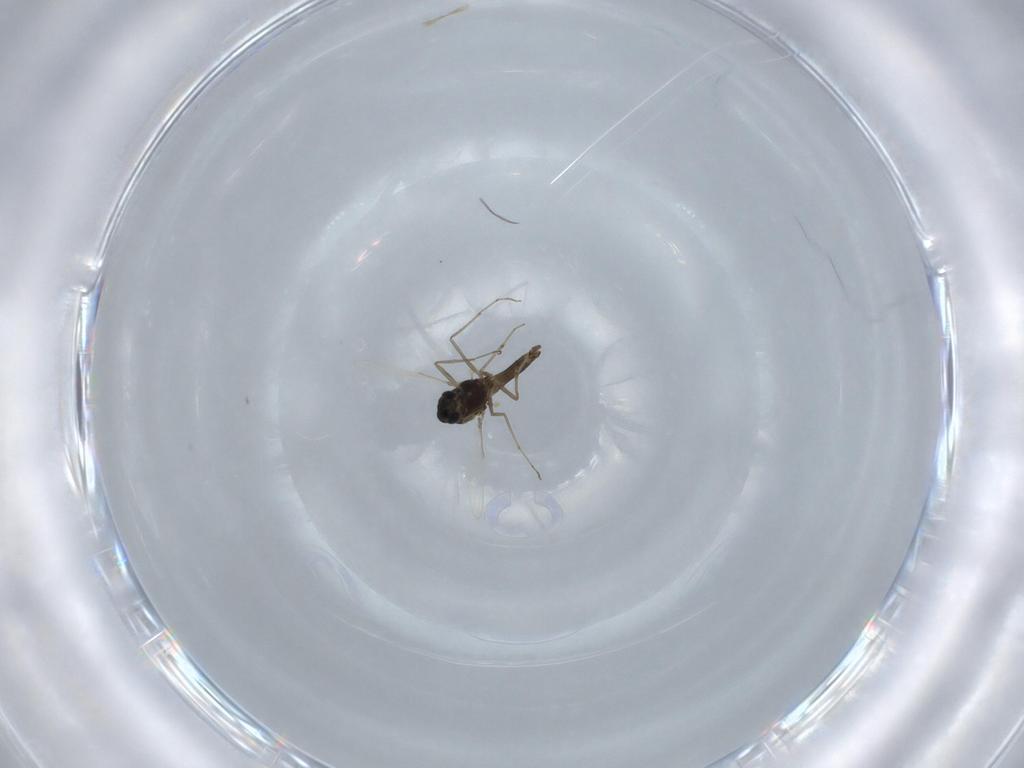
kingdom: Animalia
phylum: Arthropoda
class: Insecta
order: Diptera
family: Chironomidae
